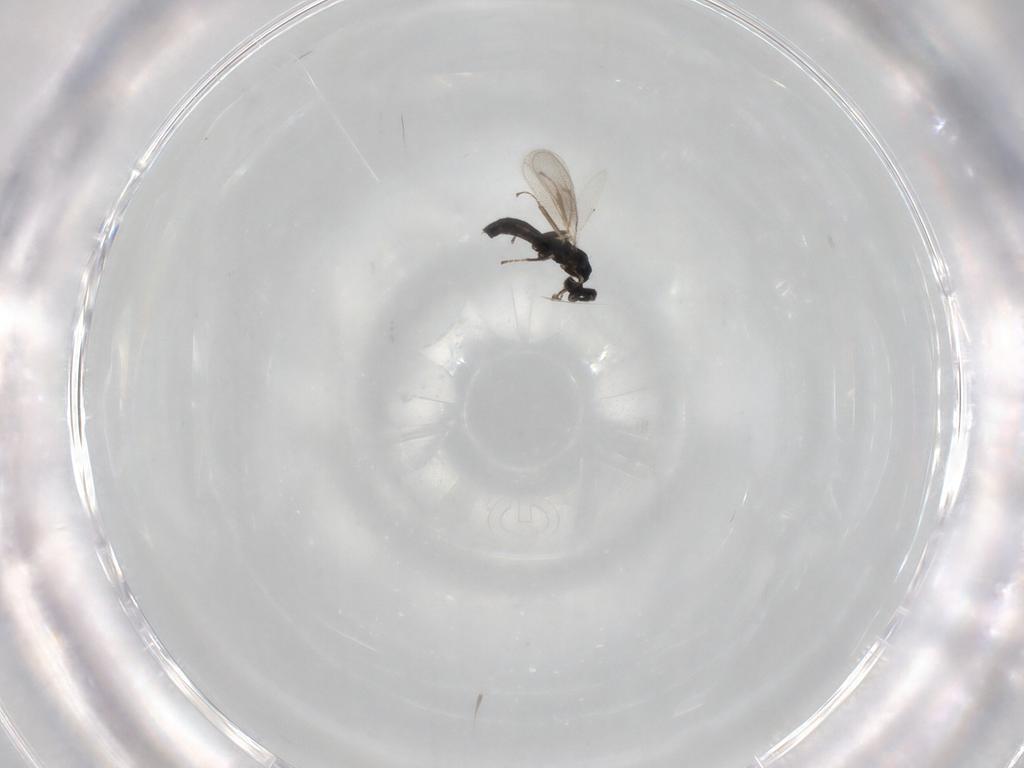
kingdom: Animalia
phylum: Arthropoda
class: Insecta
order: Hymenoptera
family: Eulophidae
